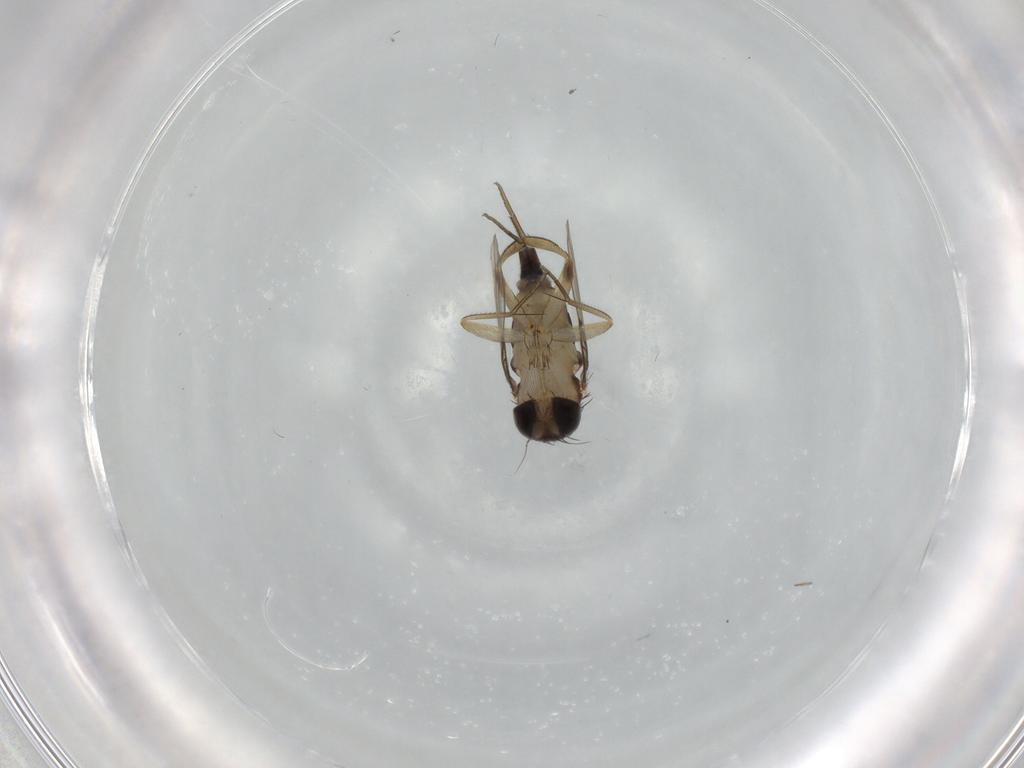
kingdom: Animalia
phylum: Arthropoda
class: Insecta
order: Diptera
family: Phoridae
